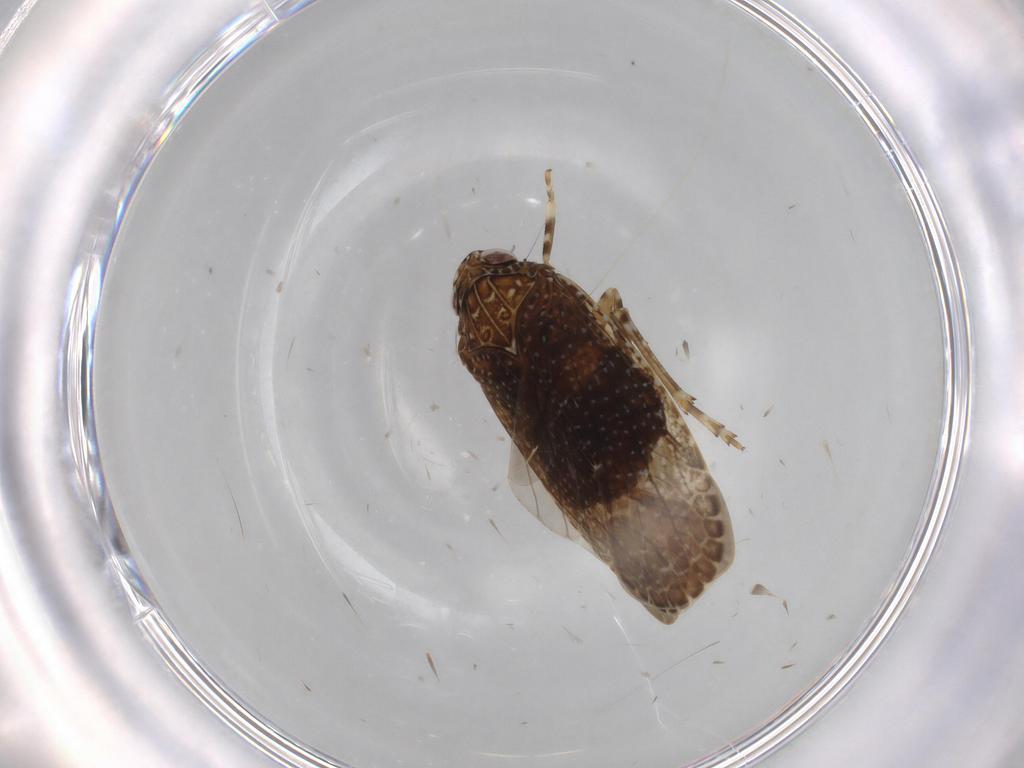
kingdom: Animalia
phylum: Arthropoda
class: Insecta
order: Hemiptera
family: Achilidae
